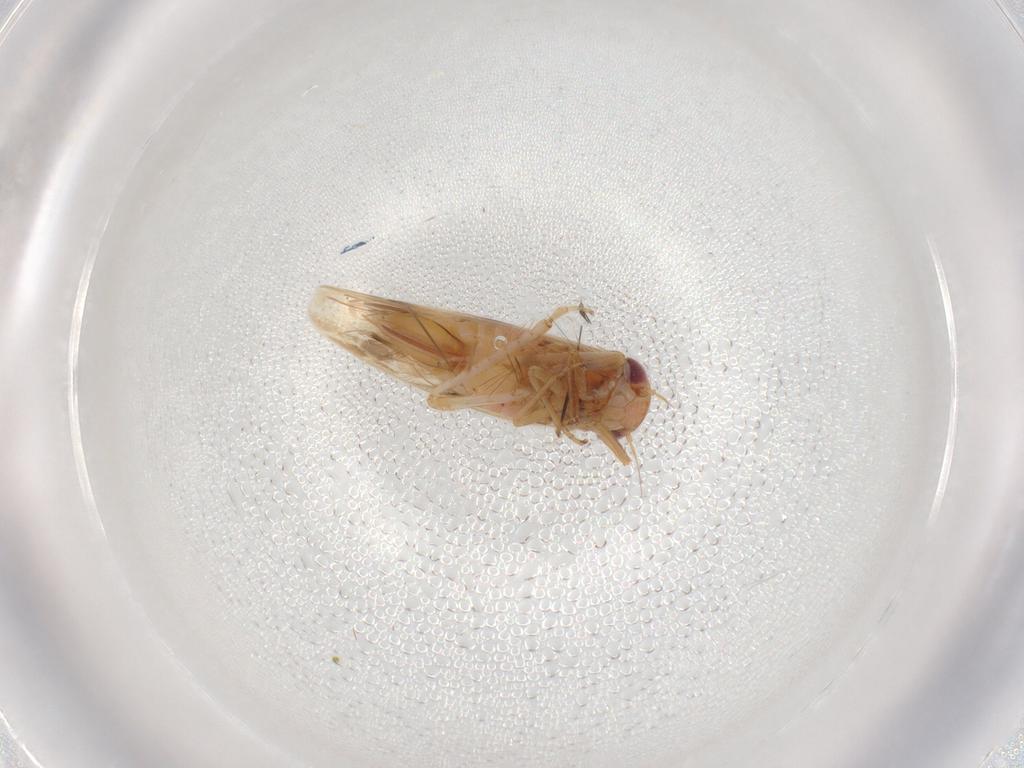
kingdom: Animalia
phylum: Arthropoda
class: Insecta
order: Hemiptera
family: Cicadellidae
